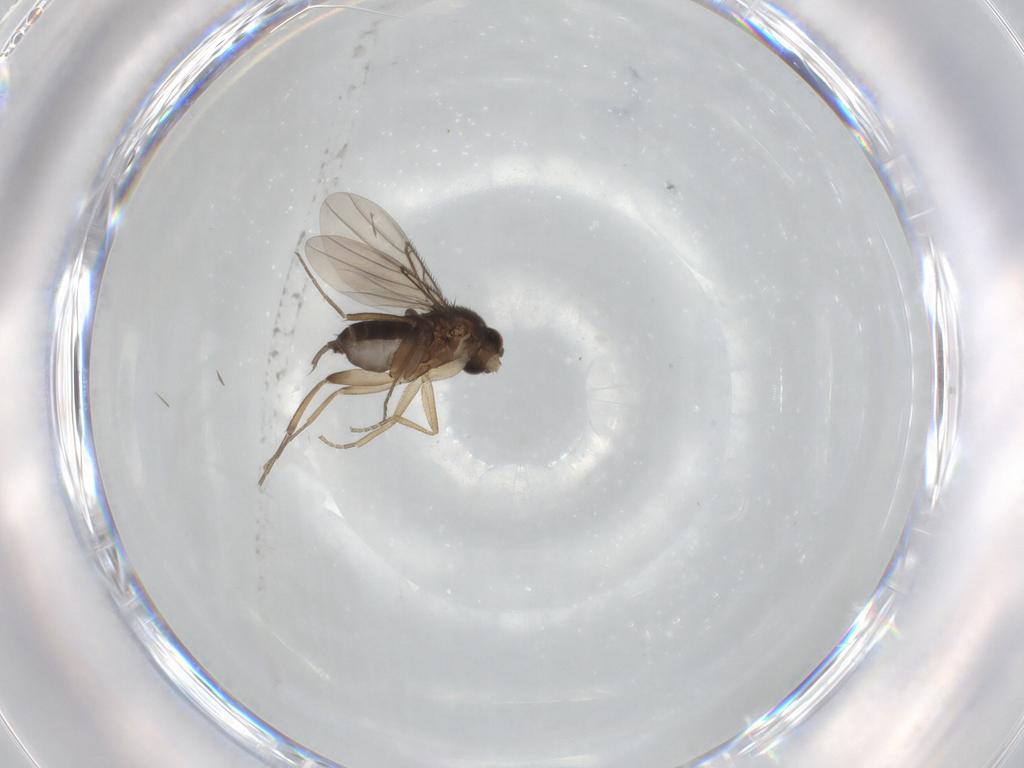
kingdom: Animalia
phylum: Arthropoda
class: Insecta
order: Diptera
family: Phoridae
